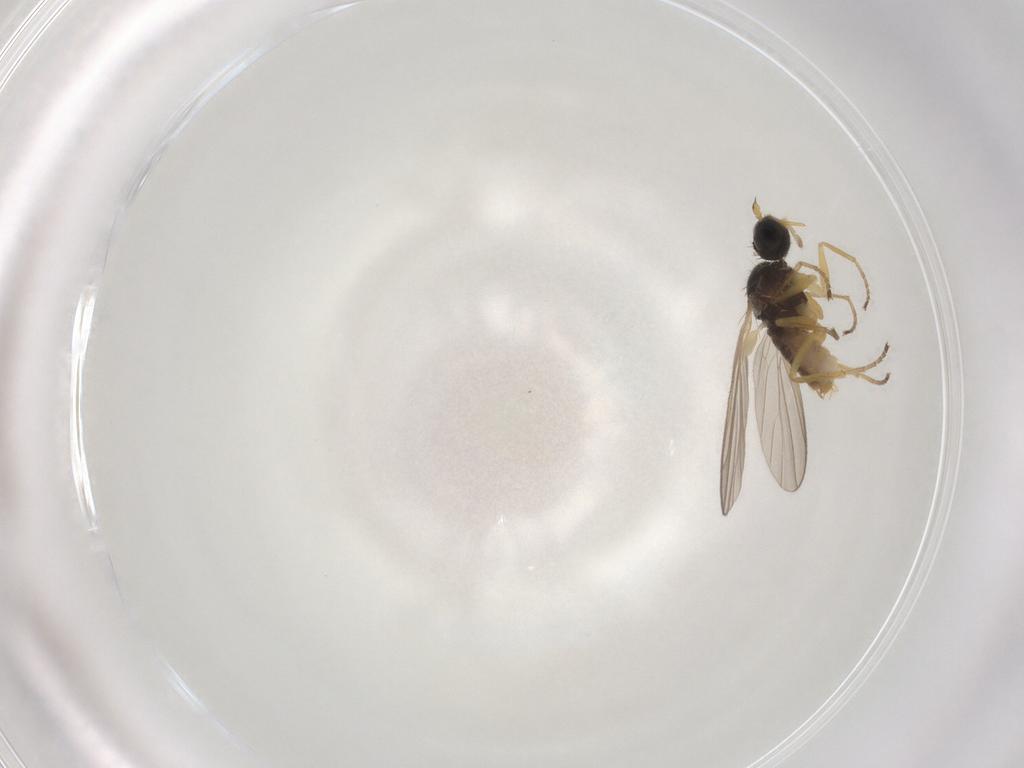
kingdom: Animalia
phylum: Arthropoda
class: Insecta
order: Diptera
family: Hybotidae
